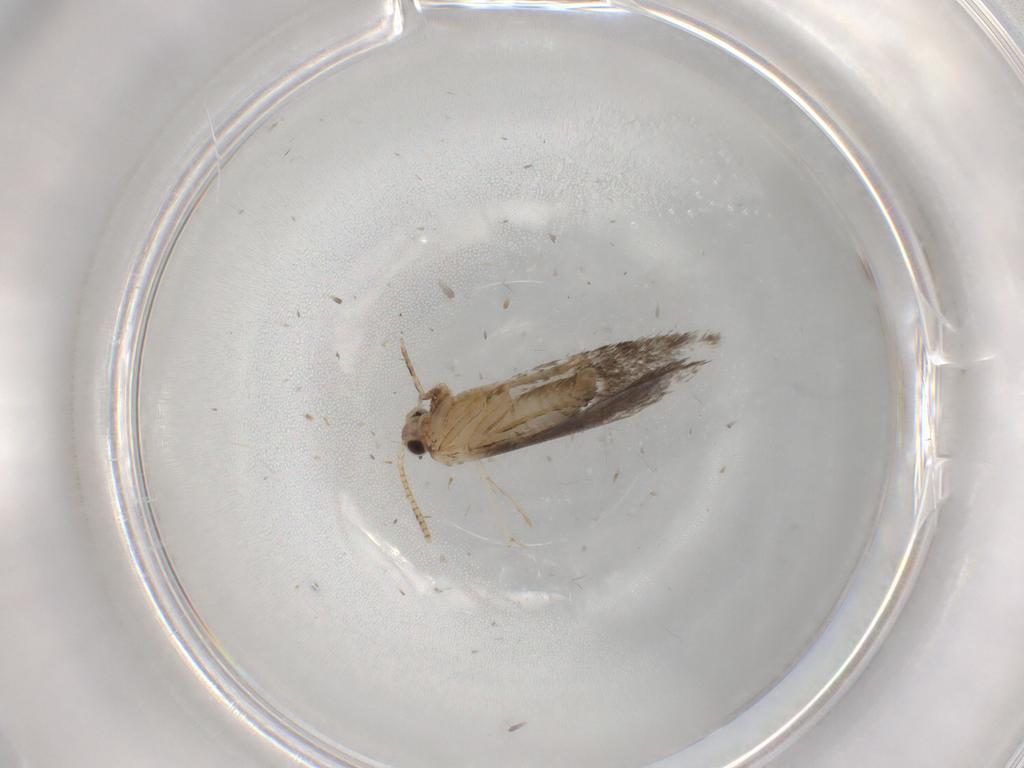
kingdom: Animalia
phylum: Arthropoda
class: Insecta
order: Lepidoptera
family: Tineidae
